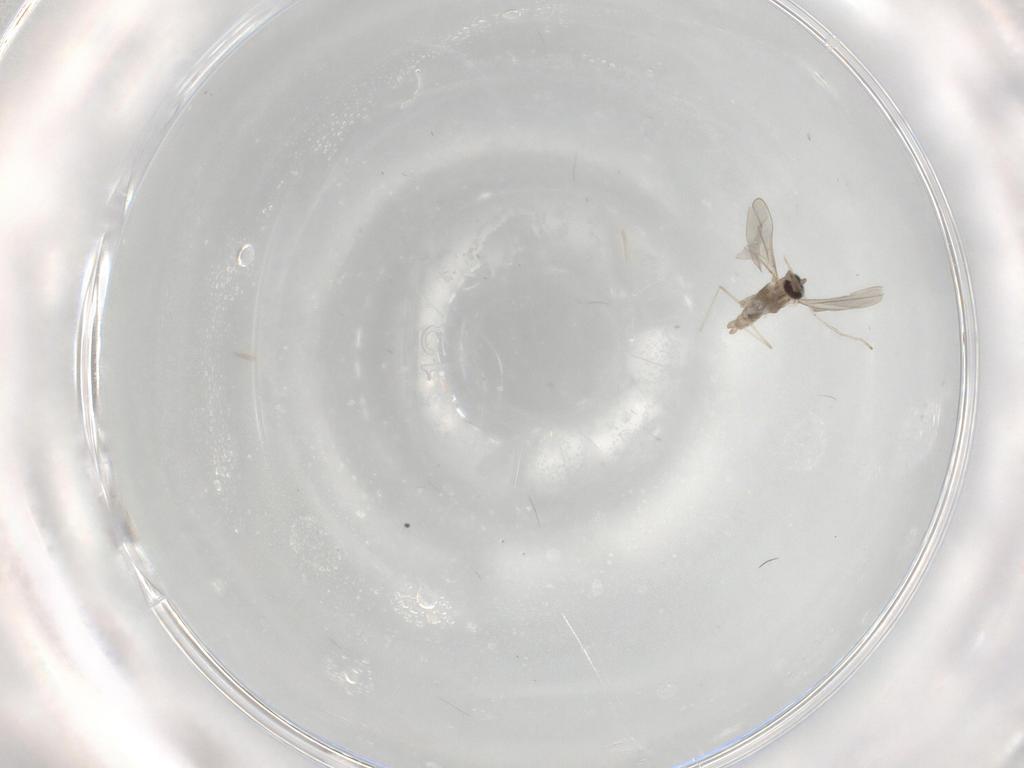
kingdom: Animalia
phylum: Arthropoda
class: Insecta
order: Diptera
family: Cecidomyiidae
